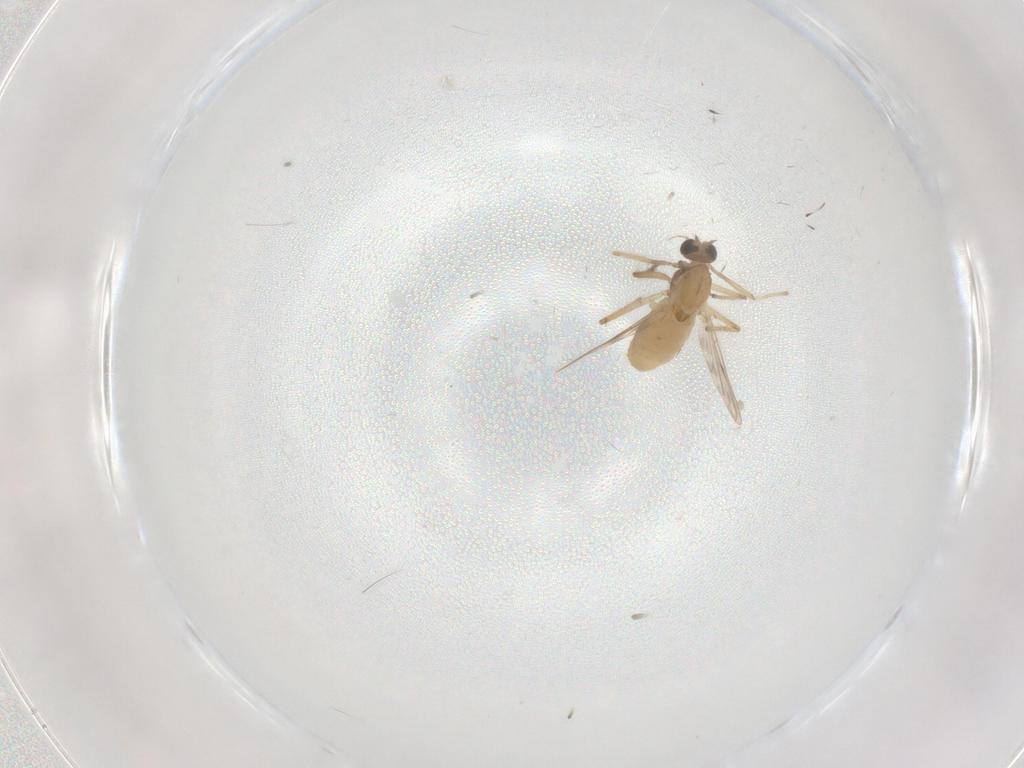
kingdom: Animalia
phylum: Arthropoda
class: Insecta
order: Diptera
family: Chironomidae
